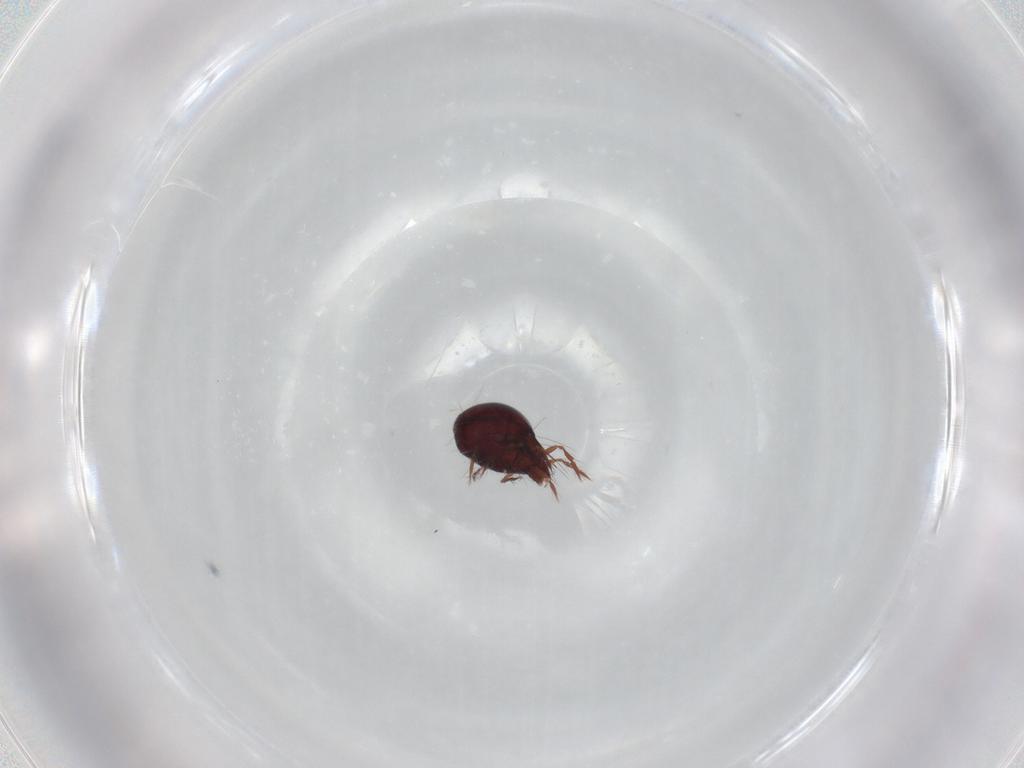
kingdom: Animalia
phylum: Arthropoda
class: Arachnida
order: Sarcoptiformes
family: Ceratoppiidae
